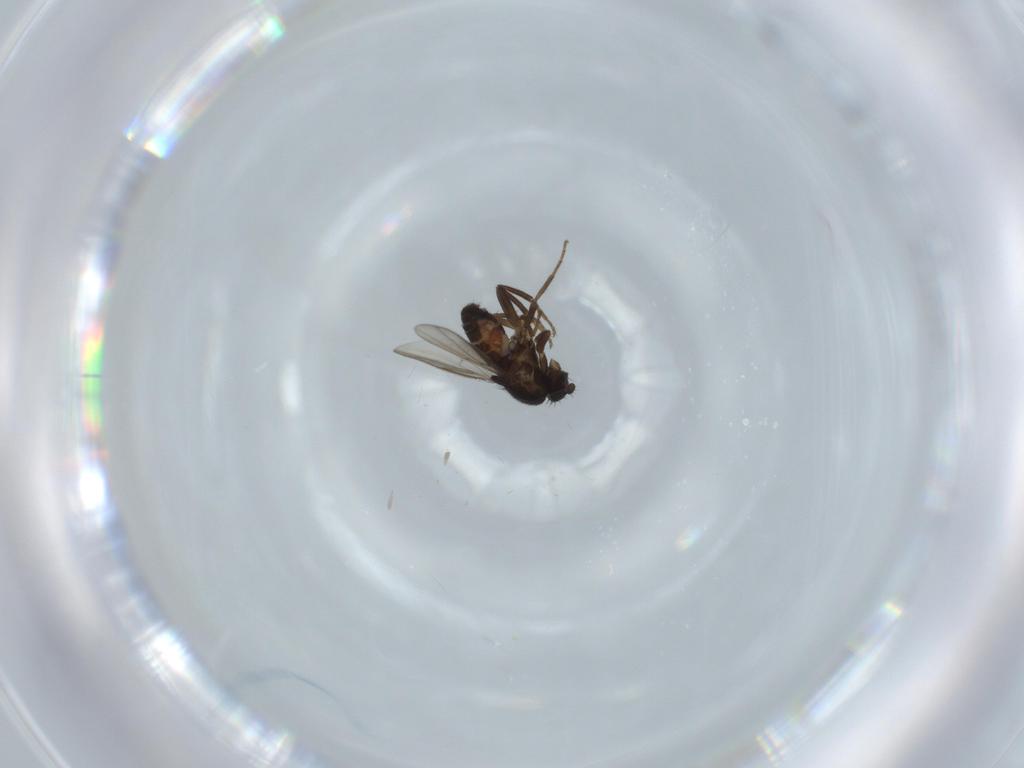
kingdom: Animalia
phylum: Arthropoda
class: Insecta
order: Diptera
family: Sphaeroceridae
